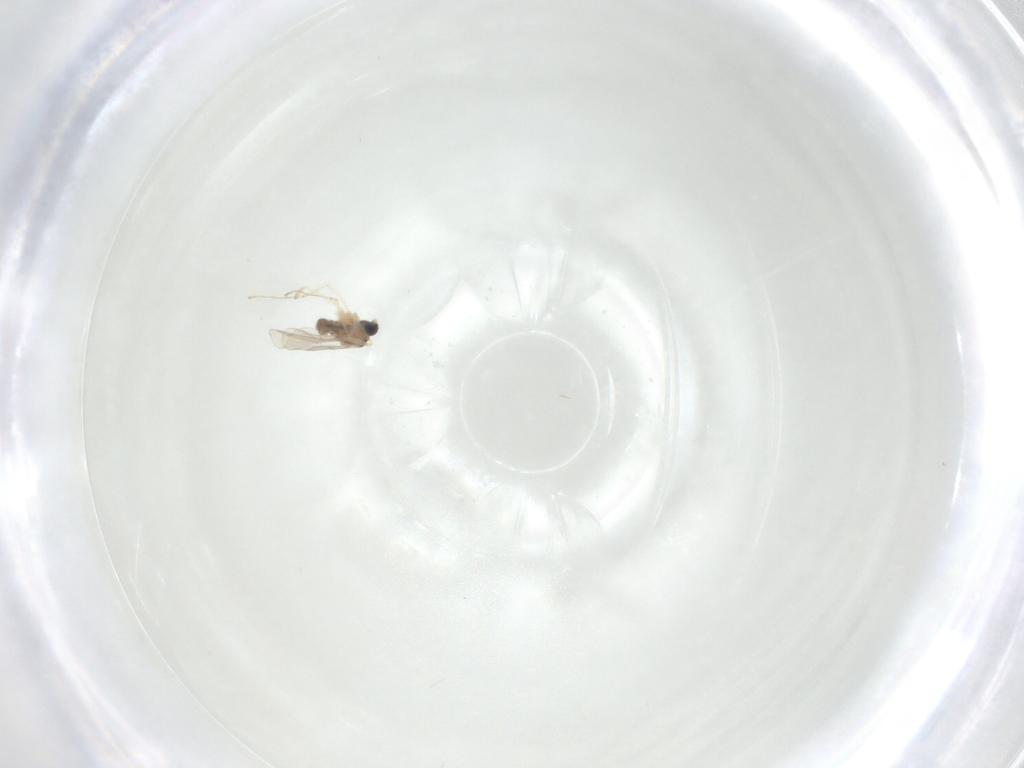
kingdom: Animalia
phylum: Arthropoda
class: Insecta
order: Diptera
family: Cecidomyiidae
